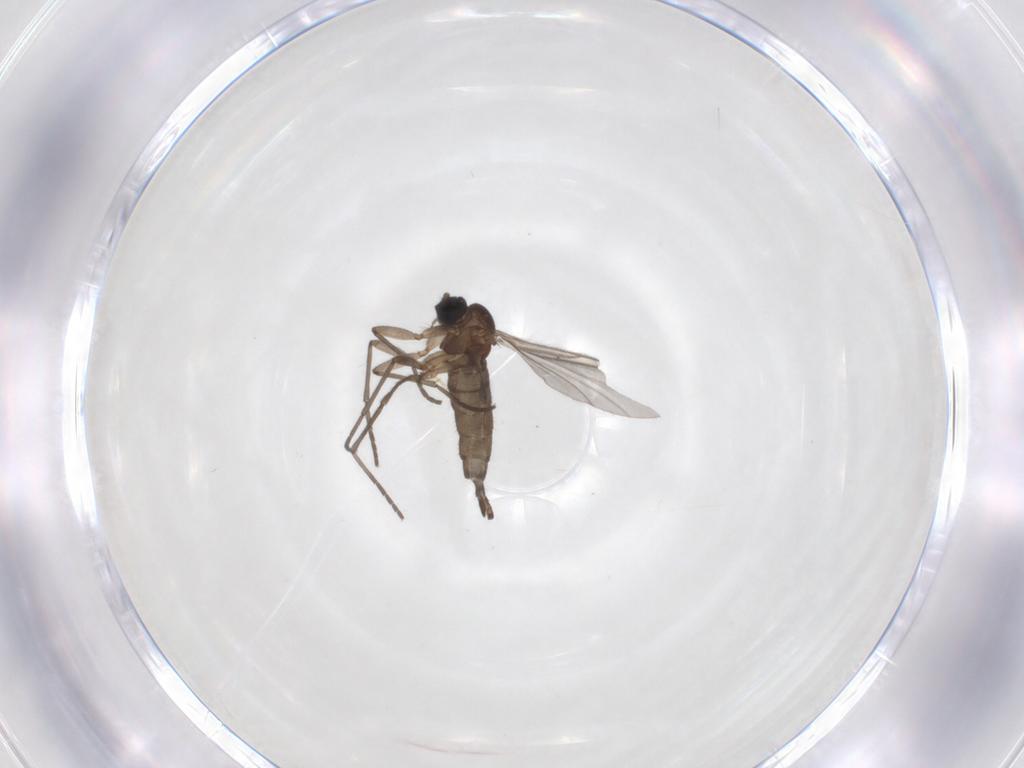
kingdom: Animalia
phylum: Arthropoda
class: Insecta
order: Diptera
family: Sciaridae
